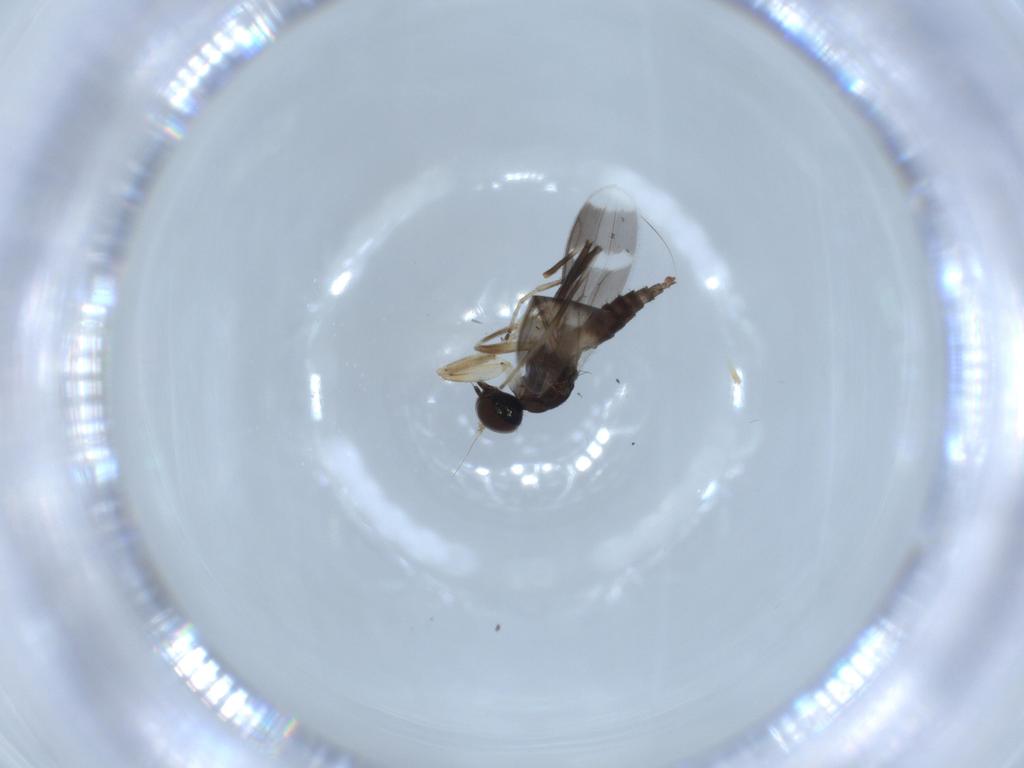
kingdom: Animalia
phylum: Arthropoda
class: Insecta
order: Diptera
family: Hybotidae
